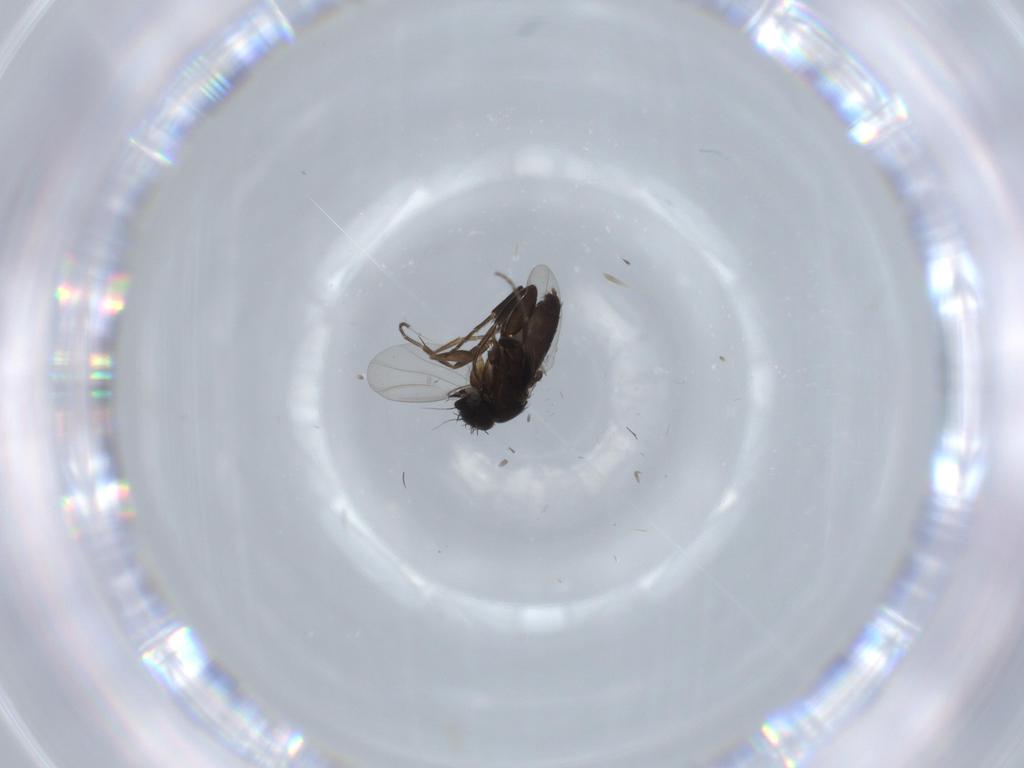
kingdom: Animalia
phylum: Arthropoda
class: Insecta
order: Diptera
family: Phoridae
